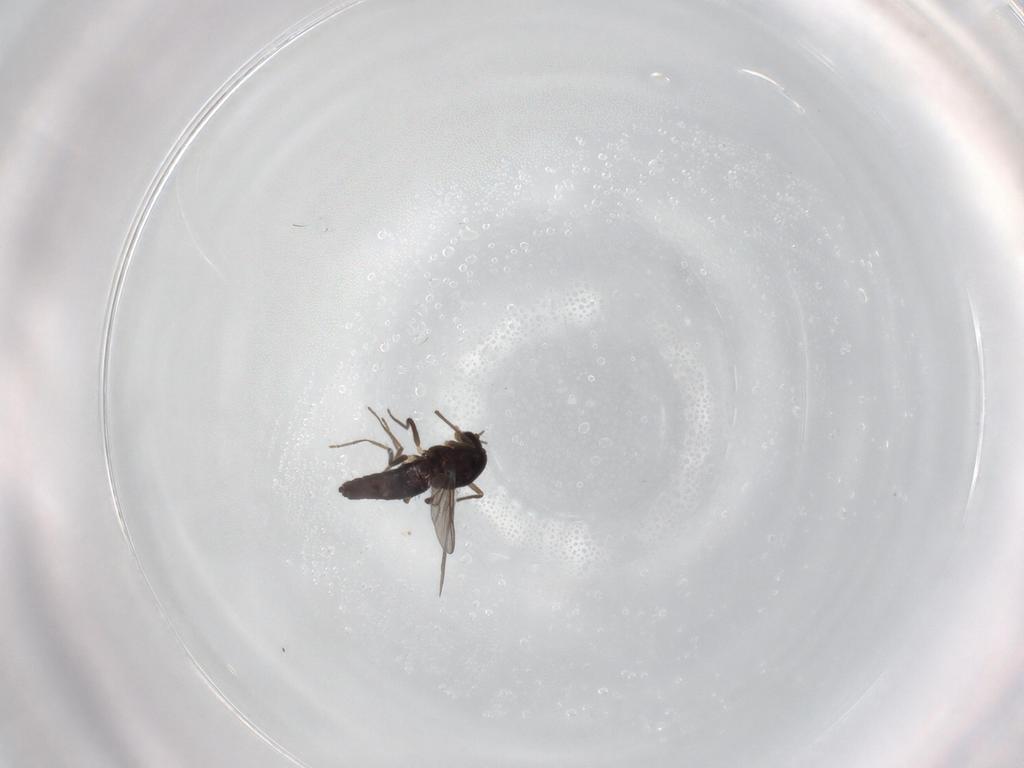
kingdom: Animalia
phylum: Arthropoda
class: Insecta
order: Diptera
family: Chironomidae
